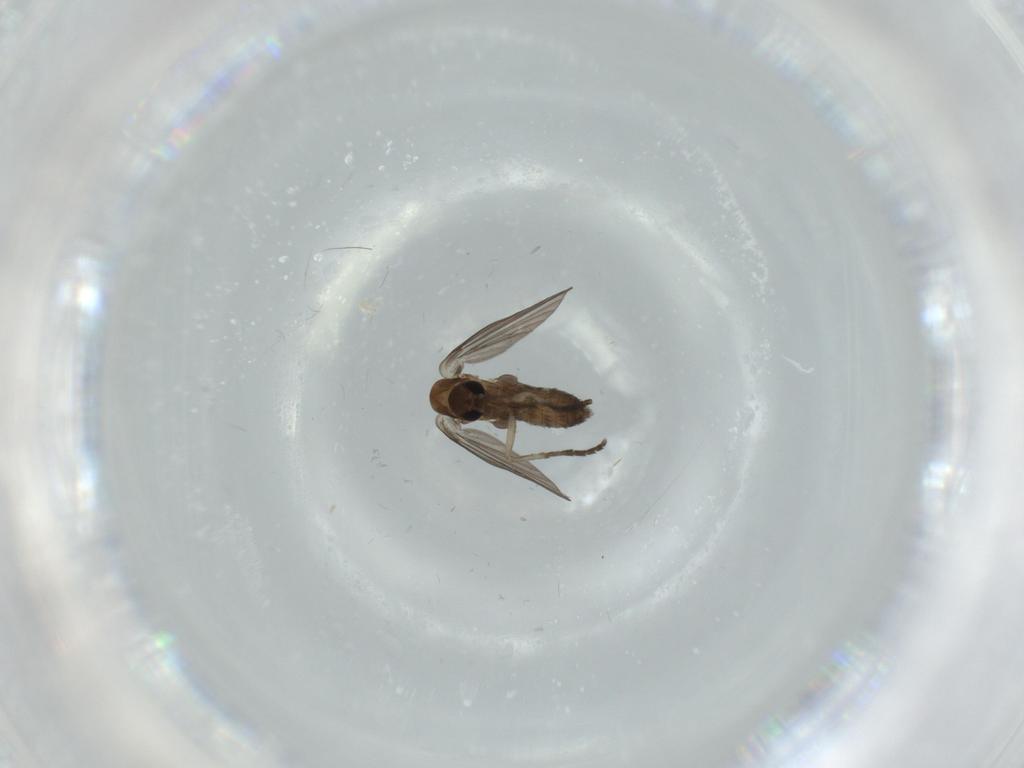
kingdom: Animalia
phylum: Arthropoda
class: Insecta
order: Diptera
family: Psychodidae
